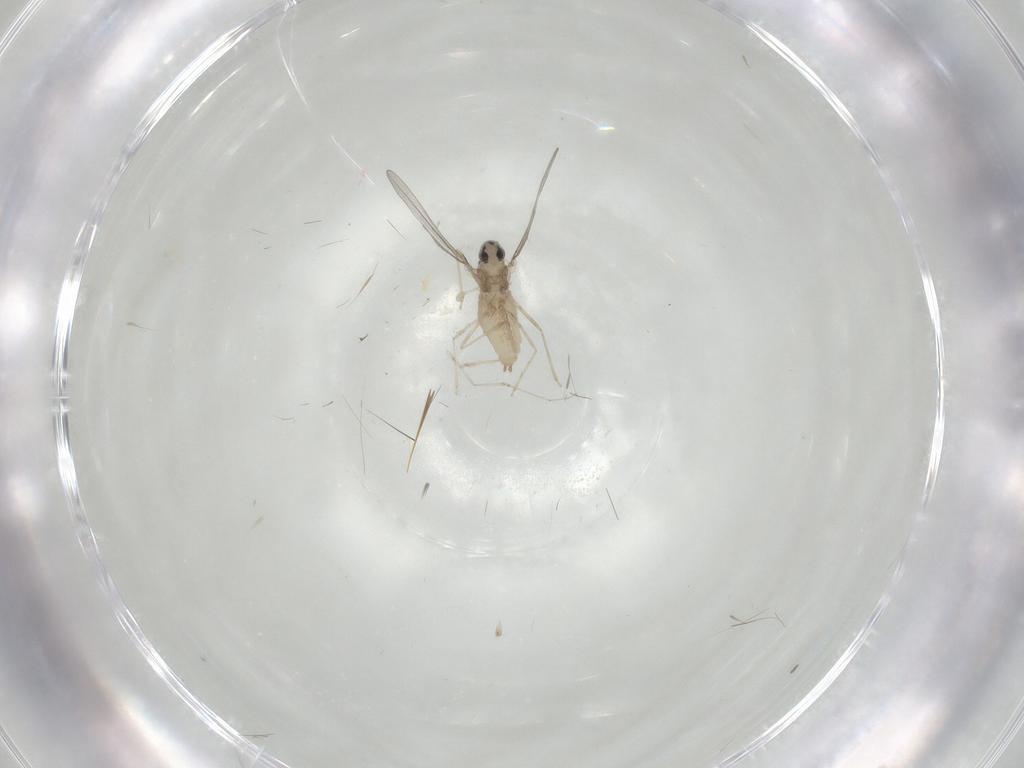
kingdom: Animalia
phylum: Arthropoda
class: Insecta
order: Diptera
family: Cecidomyiidae
